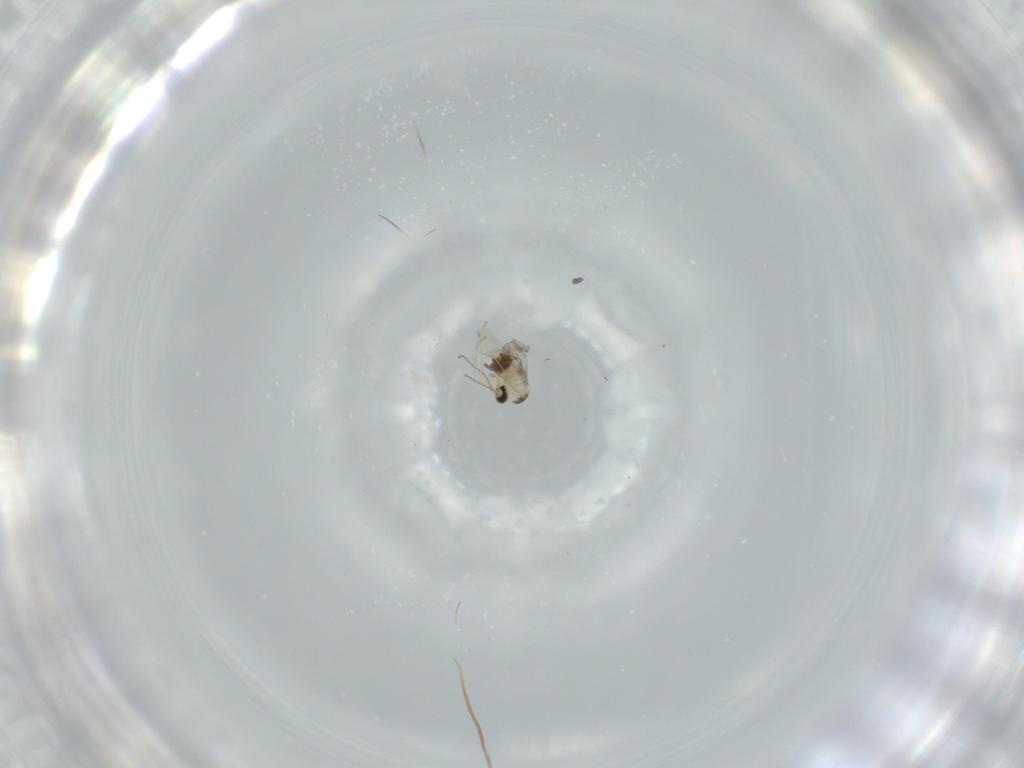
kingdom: Animalia
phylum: Arthropoda
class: Insecta
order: Diptera
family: Cecidomyiidae
